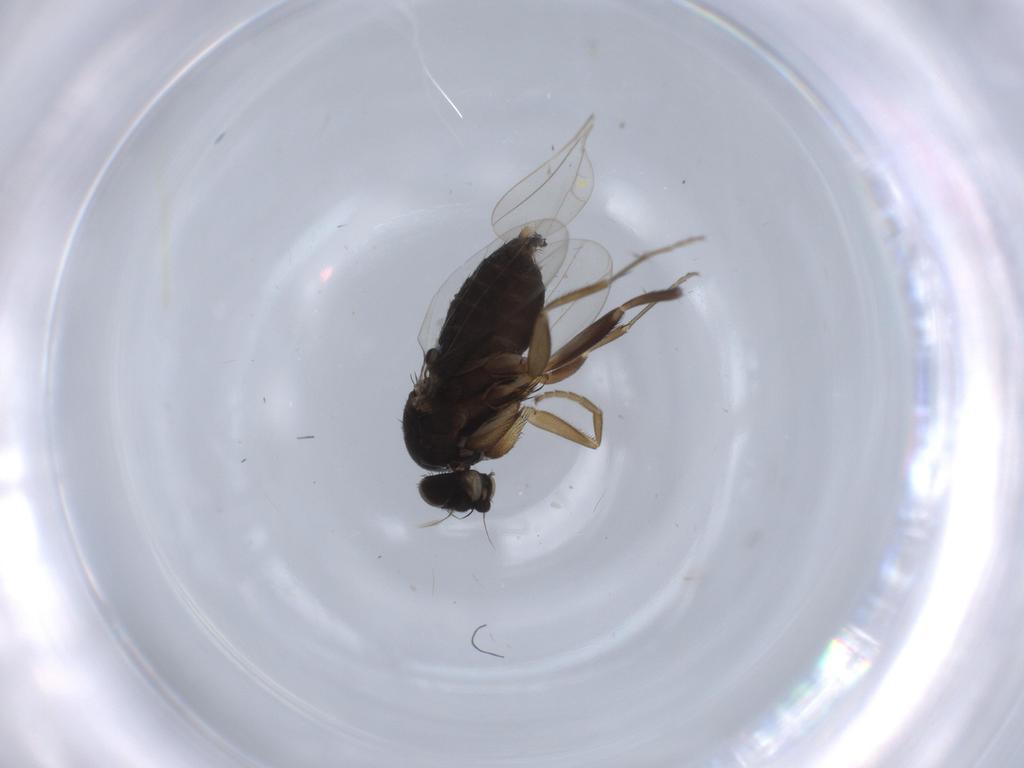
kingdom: Animalia
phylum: Arthropoda
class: Insecta
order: Diptera
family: Phoridae
